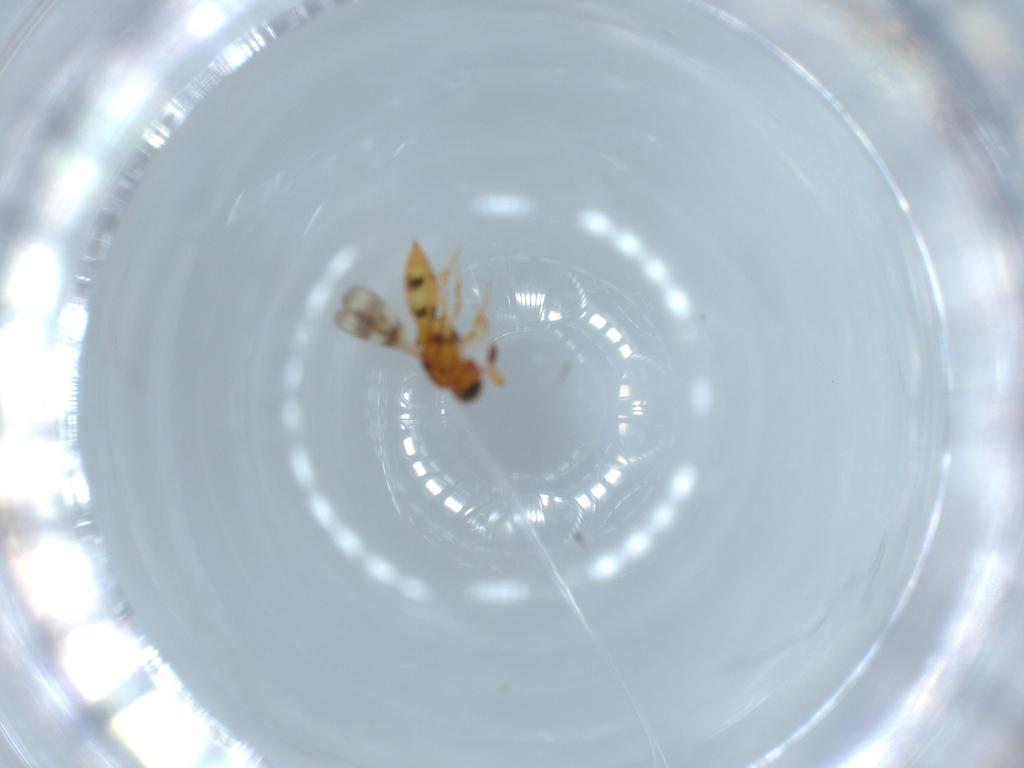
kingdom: Animalia
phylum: Arthropoda
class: Insecta
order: Hymenoptera
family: Scelionidae
